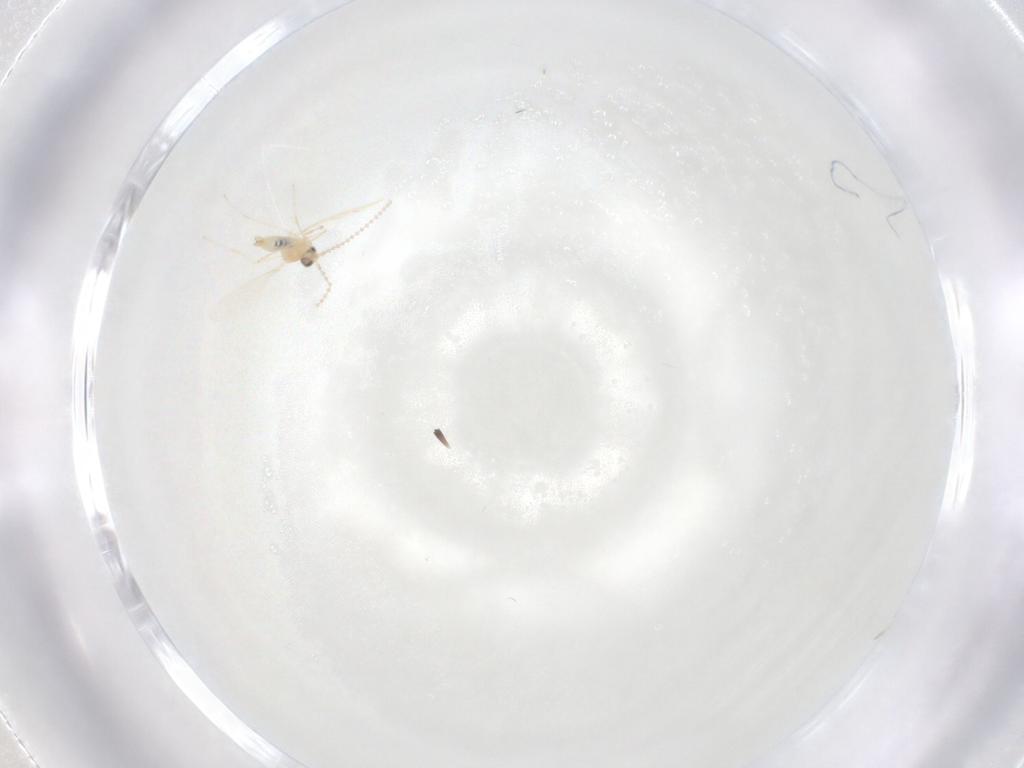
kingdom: Animalia
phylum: Arthropoda
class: Insecta
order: Diptera
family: Cecidomyiidae
